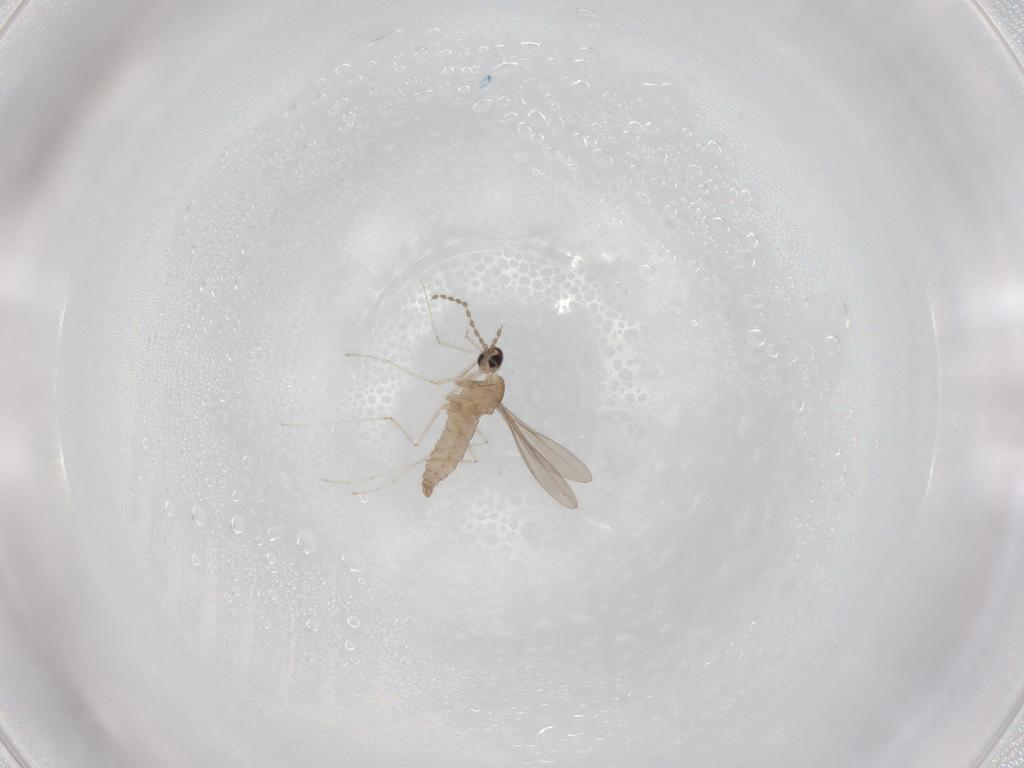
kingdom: Animalia
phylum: Arthropoda
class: Insecta
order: Diptera
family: Cecidomyiidae
